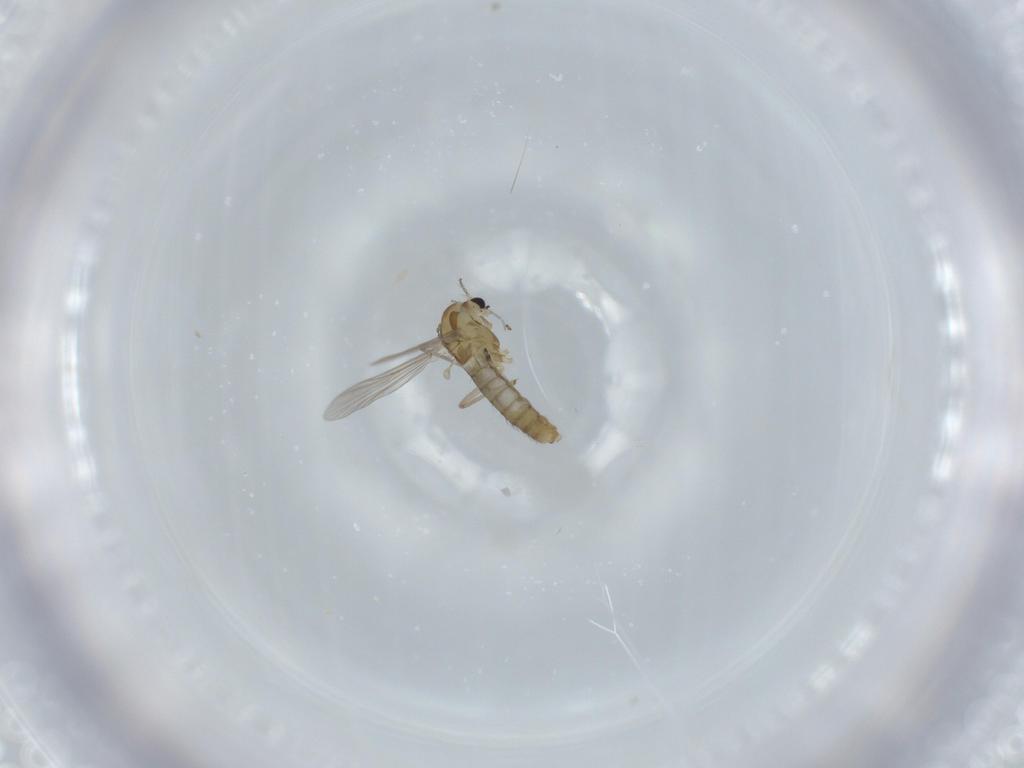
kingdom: Animalia
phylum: Arthropoda
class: Insecta
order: Diptera
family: Chironomidae
